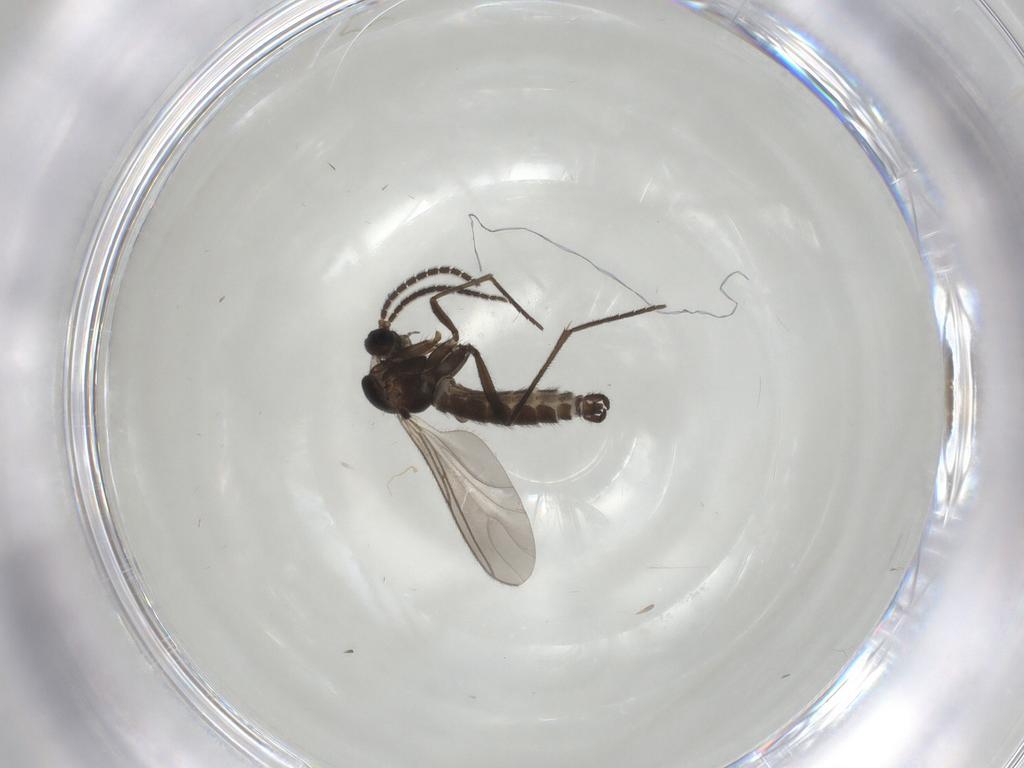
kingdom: Animalia
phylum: Arthropoda
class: Insecta
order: Diptera
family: Sciaridae
